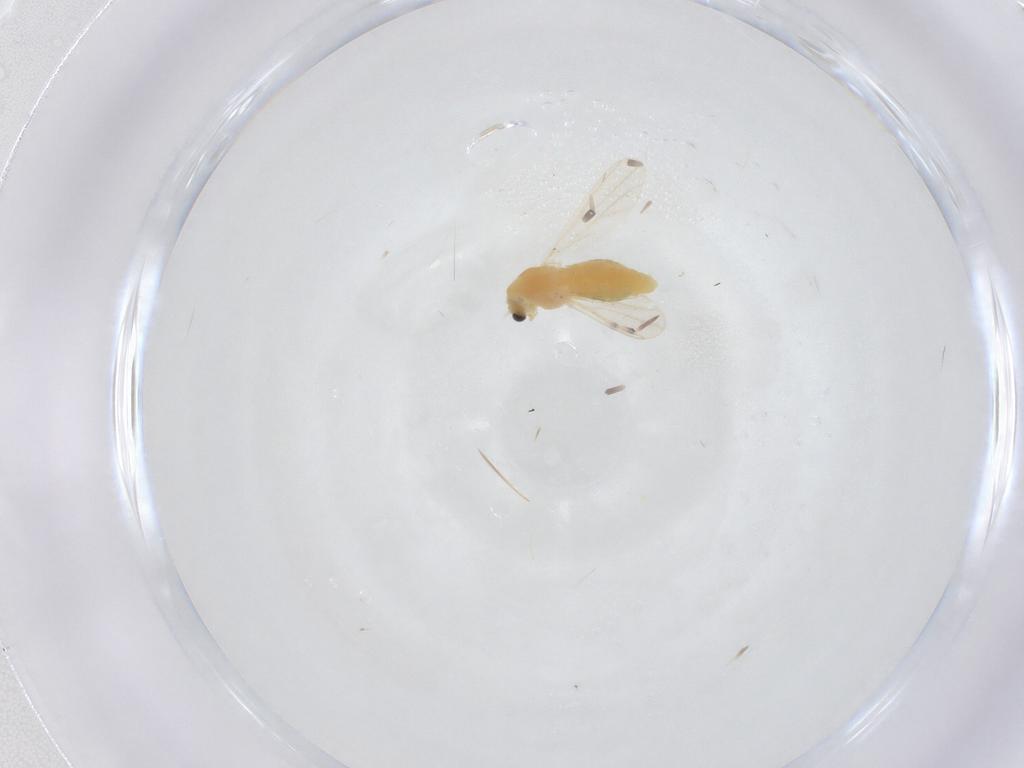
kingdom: Animalia
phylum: Arthropoda
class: Insecta
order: Diptera
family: Chironomidae
